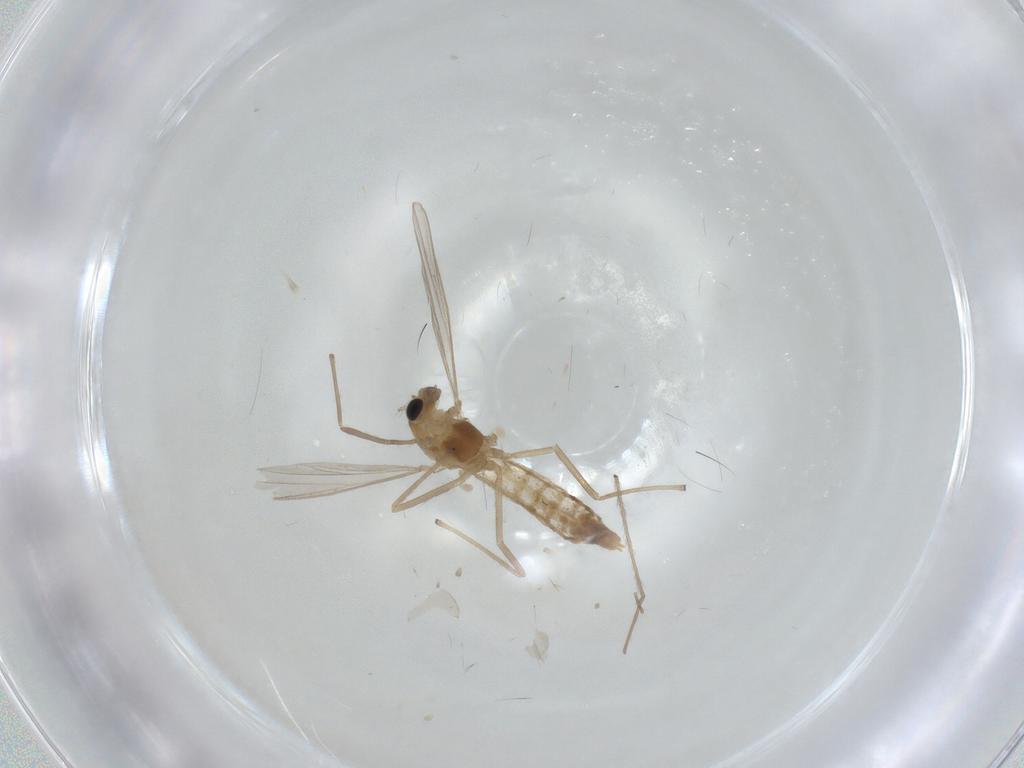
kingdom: Animalia
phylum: Arthropoda
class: Insecta
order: Diptera
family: Chironomidae
